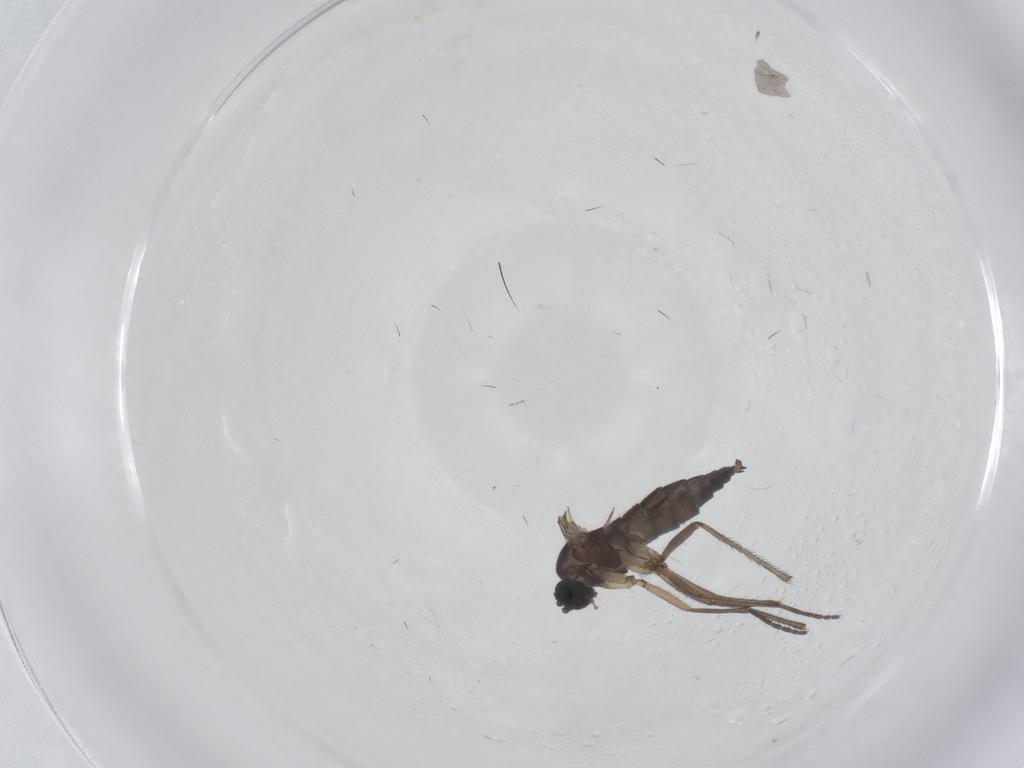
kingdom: Animalia
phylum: Arthropoda
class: Insecta
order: Diptera
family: Sciaridae
